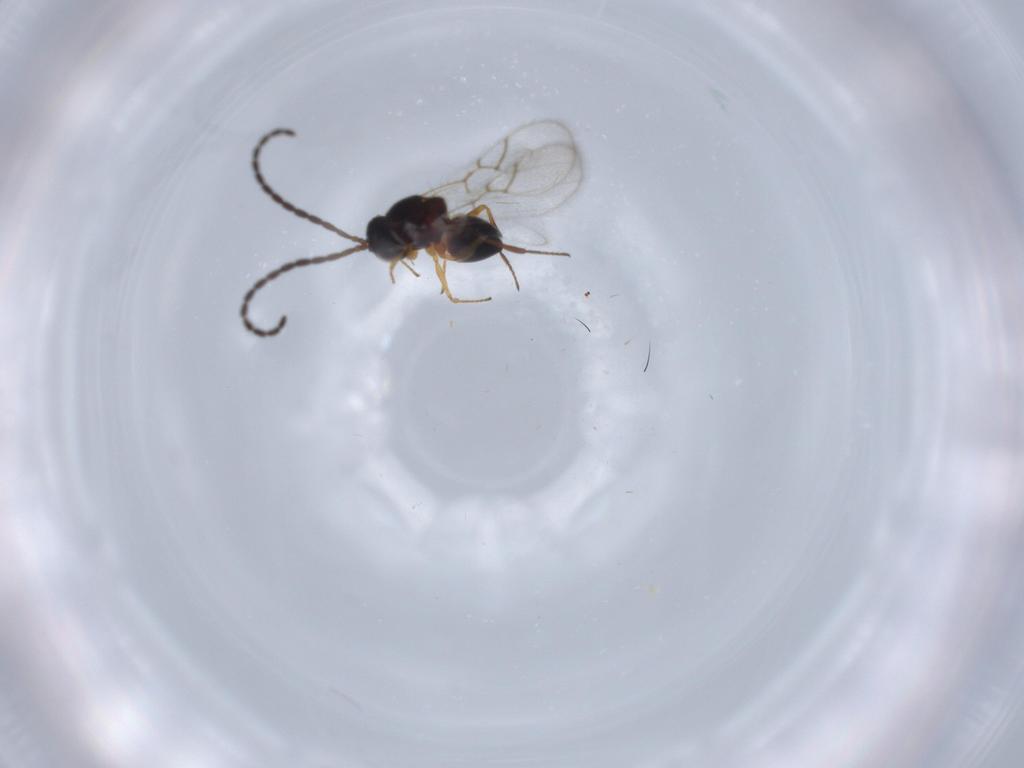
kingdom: Animalia
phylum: Arthropoda
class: Insecta
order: Hymenoptera
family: Figitidae
